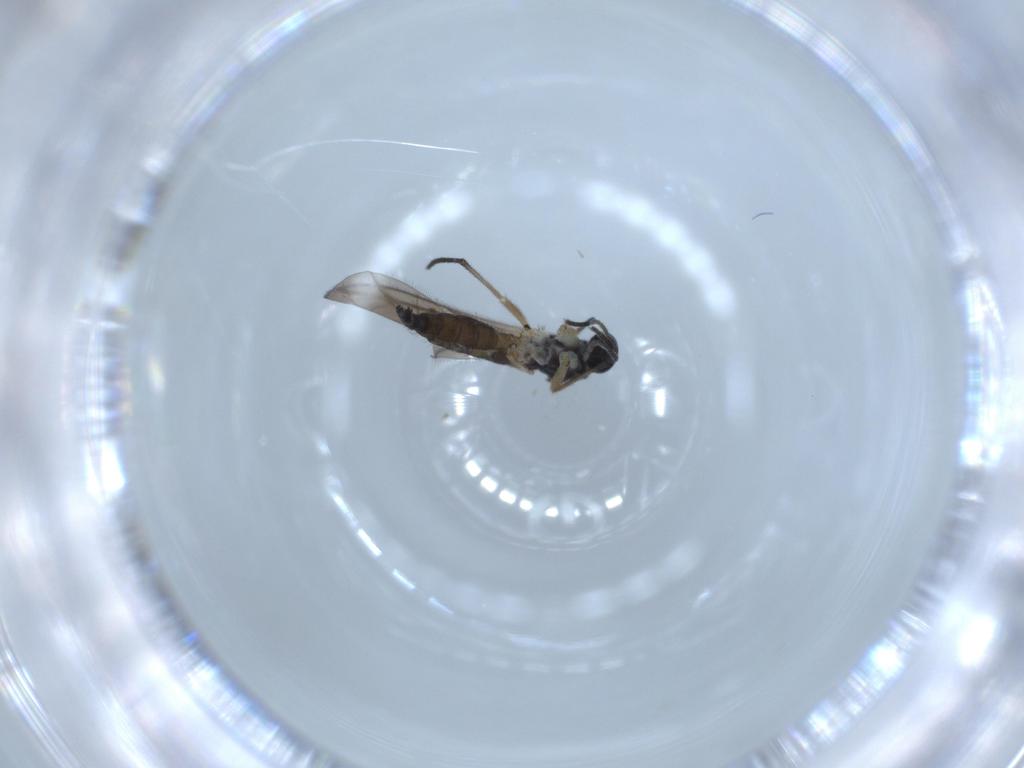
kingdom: Animalia
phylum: Arthropoda
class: Insecta
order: Diptera
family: Sciaridae
